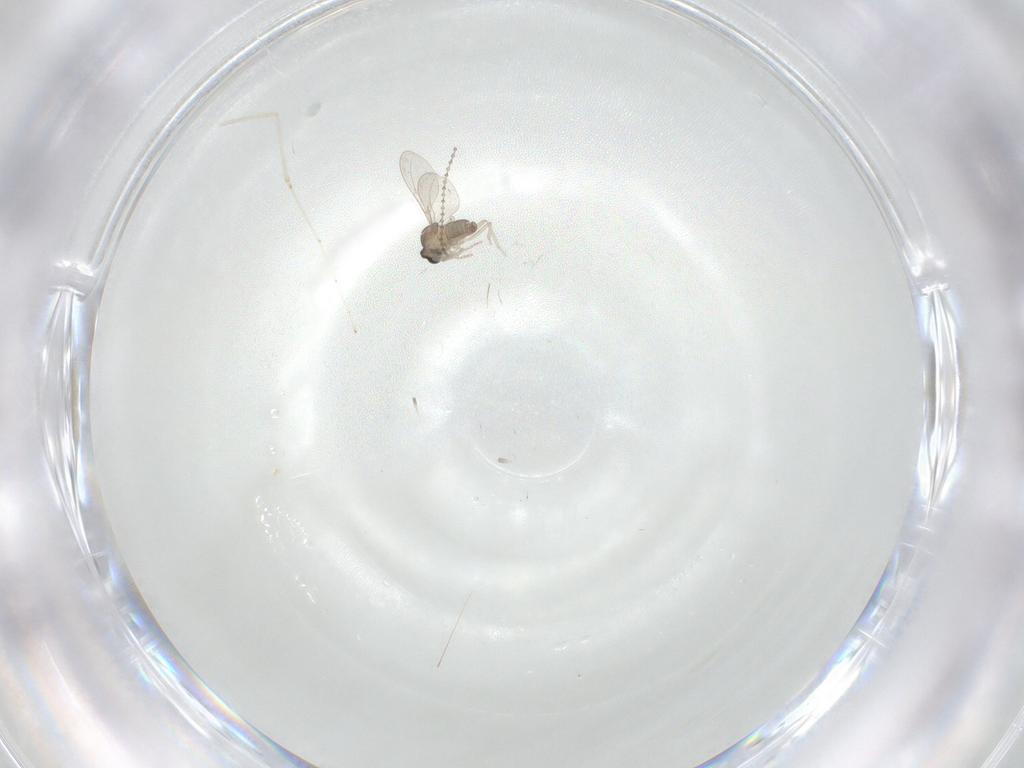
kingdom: Animalia
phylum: Arthropoda
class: Insecta
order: Diptera
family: Cecidomyiidae
